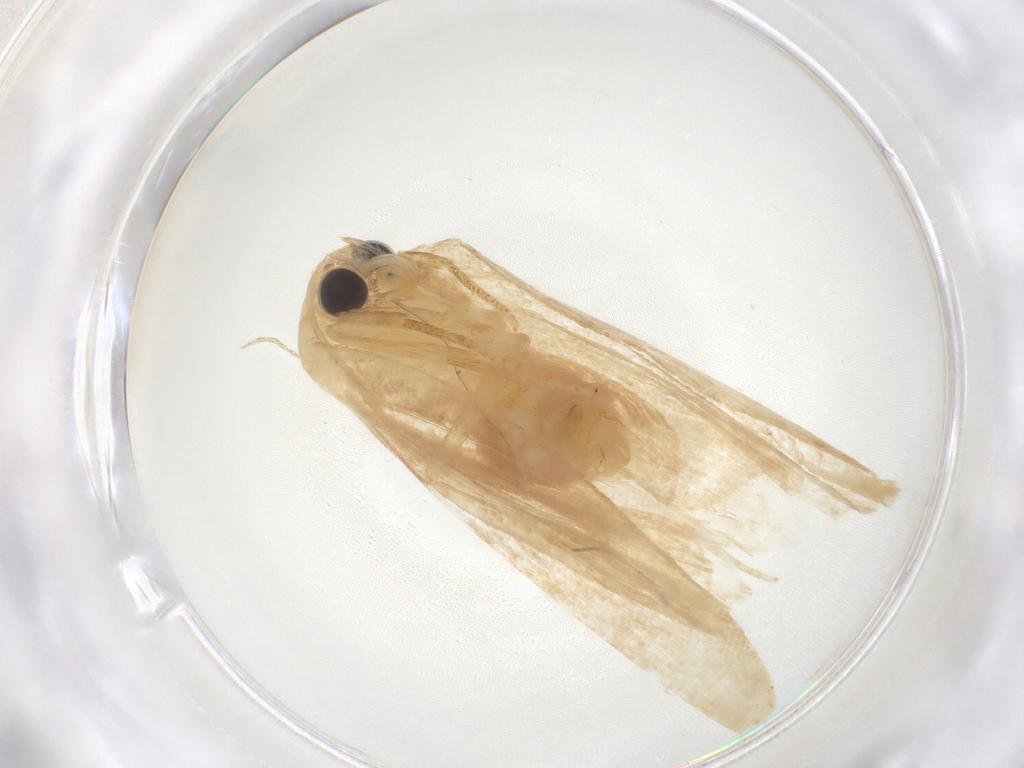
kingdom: Animalia
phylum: Arthropoda
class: Insecta
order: Lepidoptera
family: Erebidae
